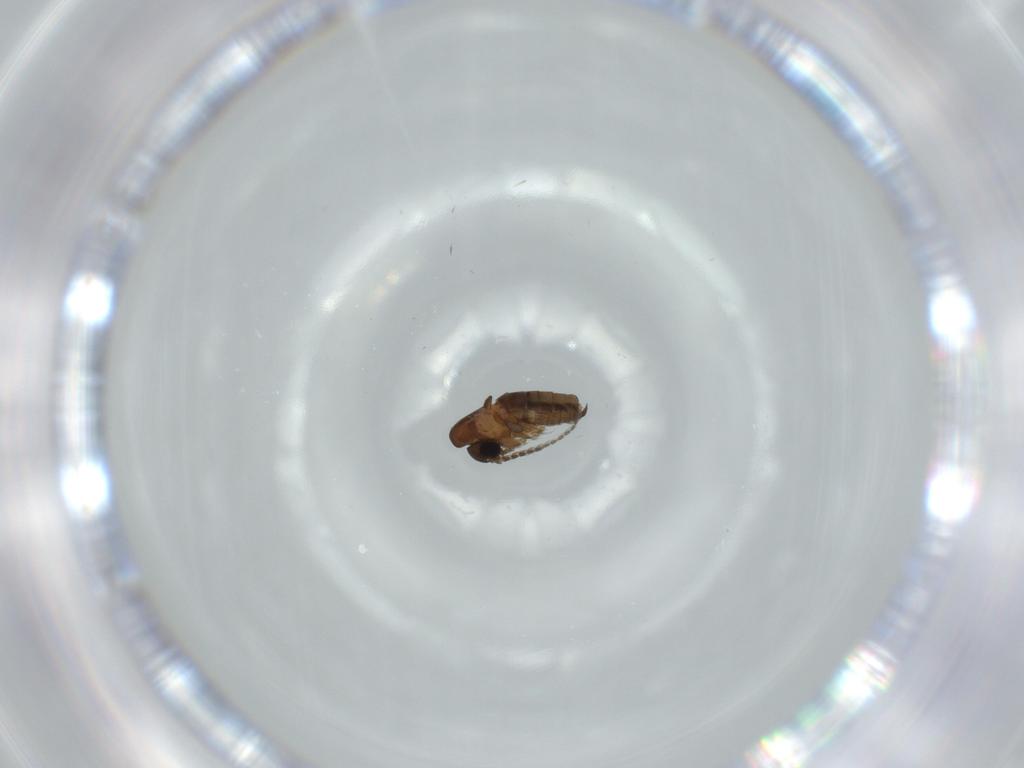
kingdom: Animalia
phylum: Arthropoda
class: Insecta
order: Diptera
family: Psychodidae
